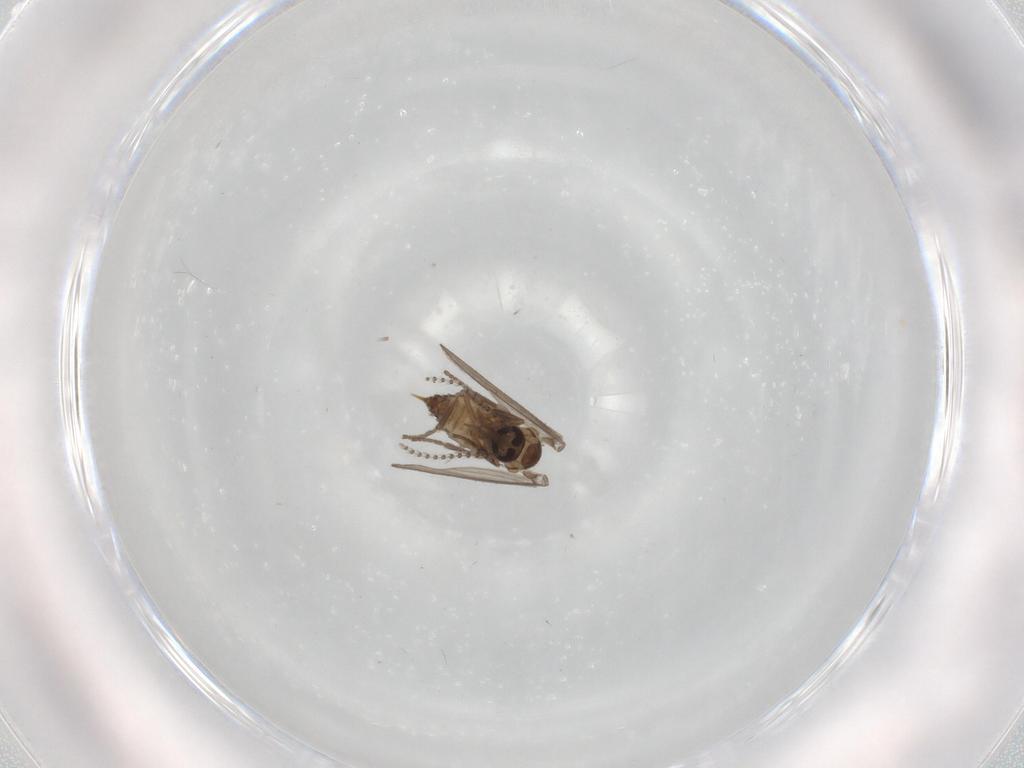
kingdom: Animalia
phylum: Arthropoda
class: Insecta
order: Diptera
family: Psychodidae
